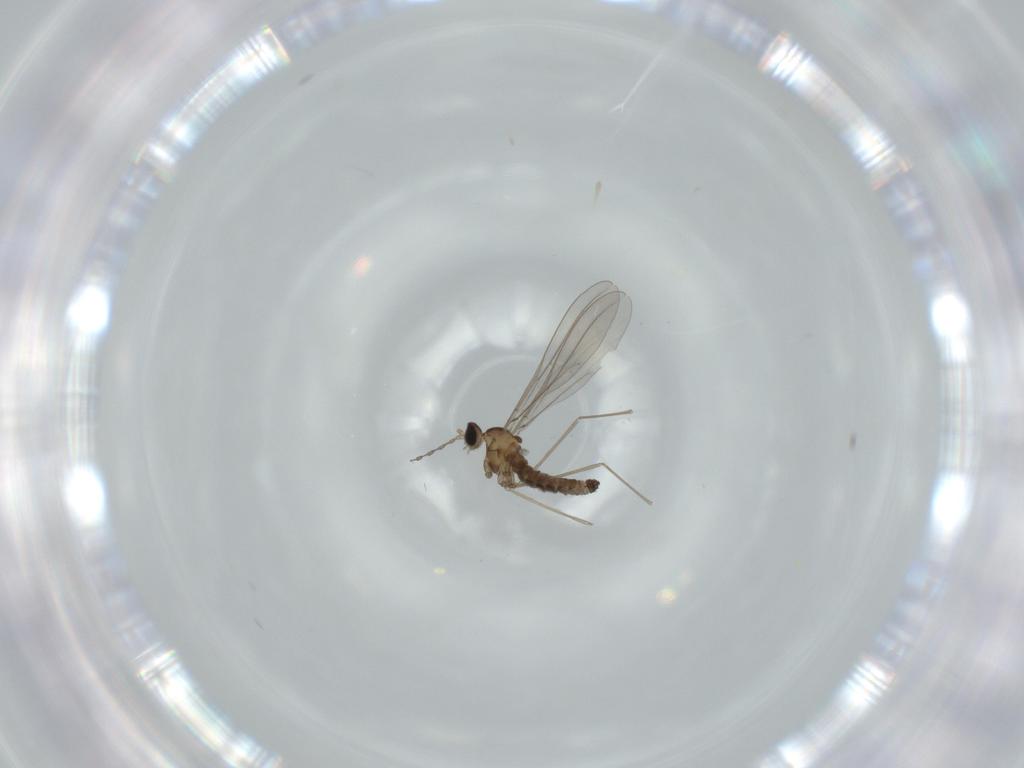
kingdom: Animalia
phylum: Arthropoda
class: Insecta
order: Diptera
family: Cecidomyiidae
